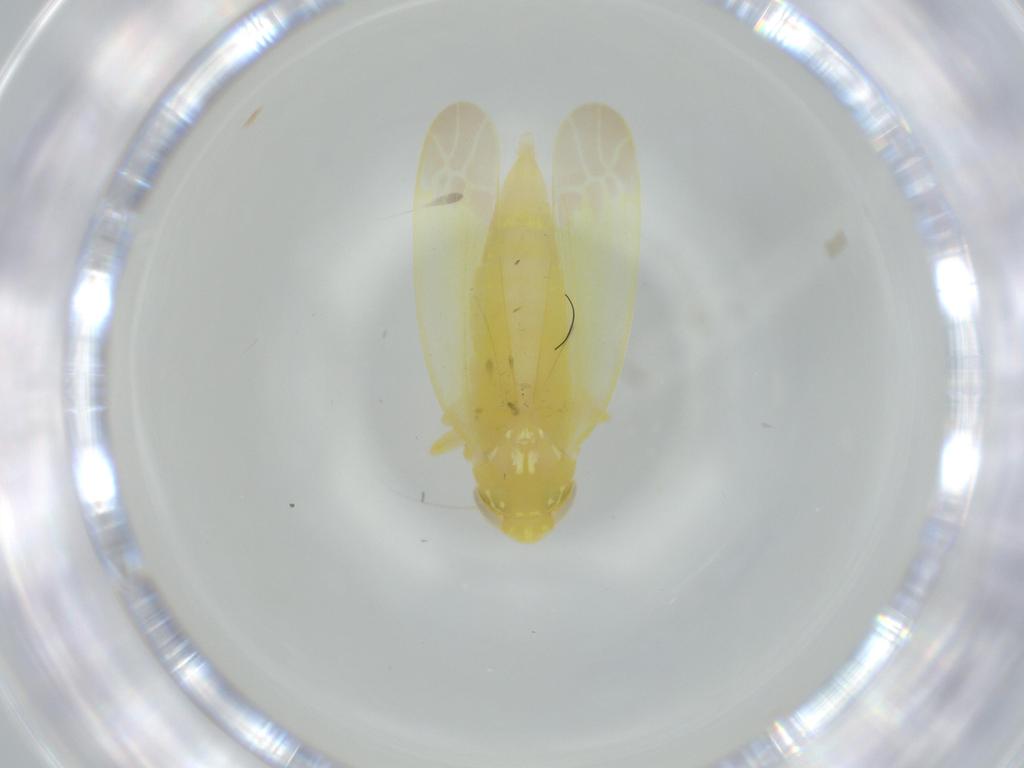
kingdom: Animalia
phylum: Arthropoda
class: Insecta
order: Hemiptera
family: Cicadellidae
